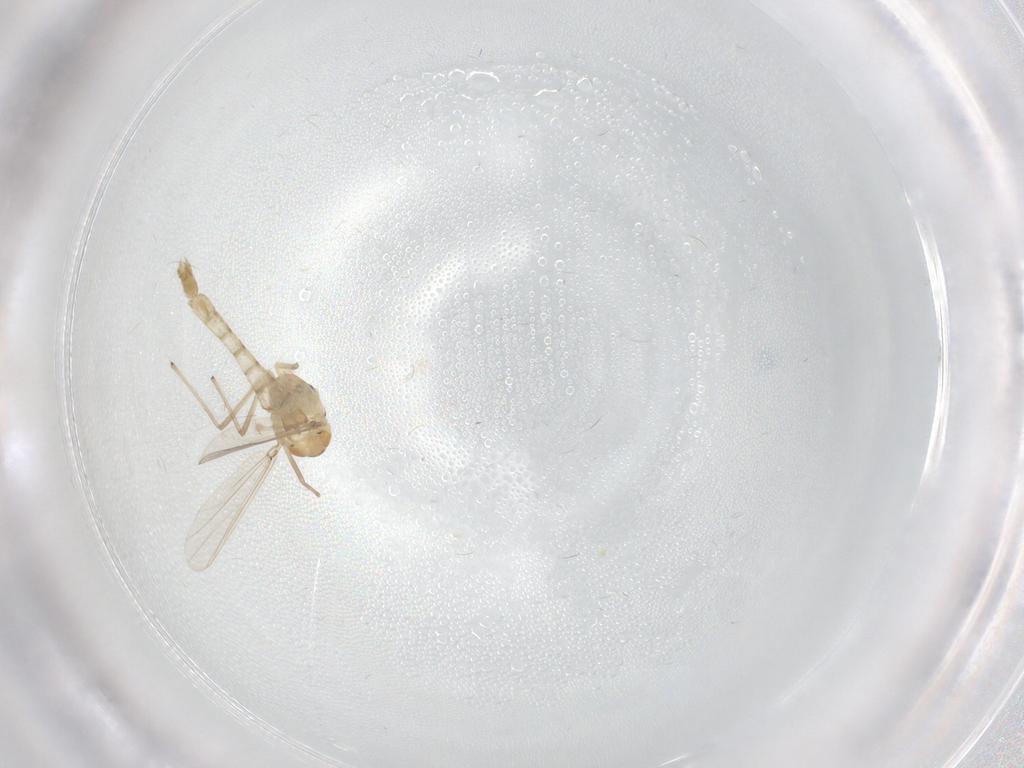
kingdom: Animalia
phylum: Arthropoda
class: Insecta
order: Diptera
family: Chironomidae
